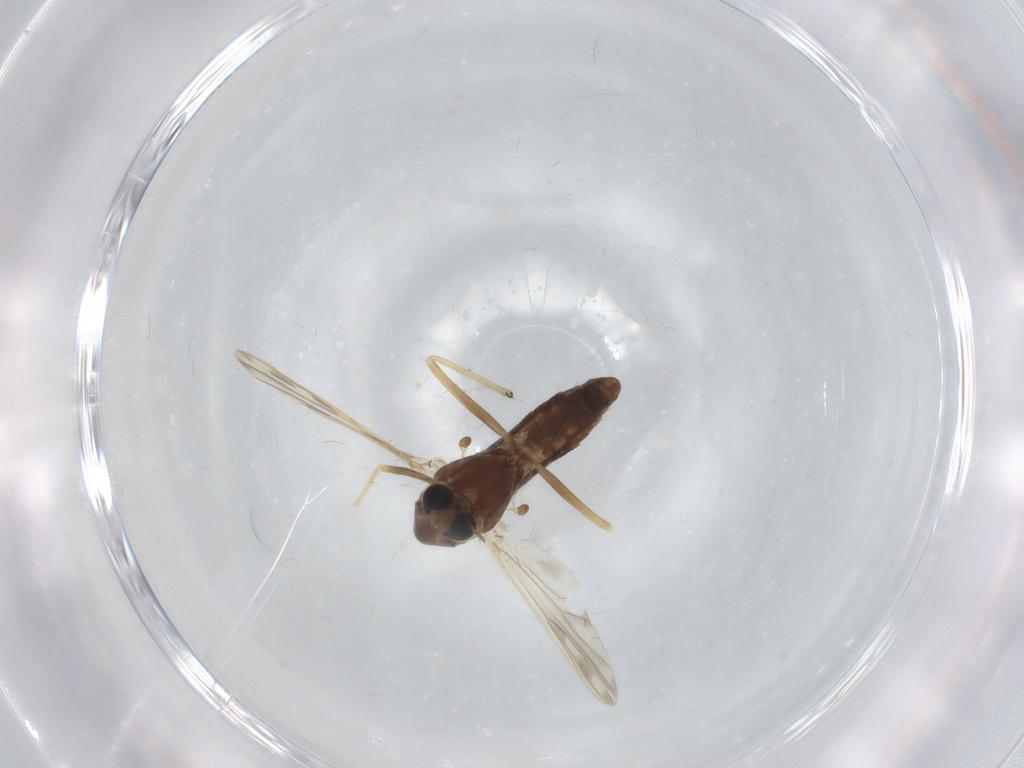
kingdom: Animalia
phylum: Arthropoda
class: Insecta
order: Diptera
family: Chironomidae
